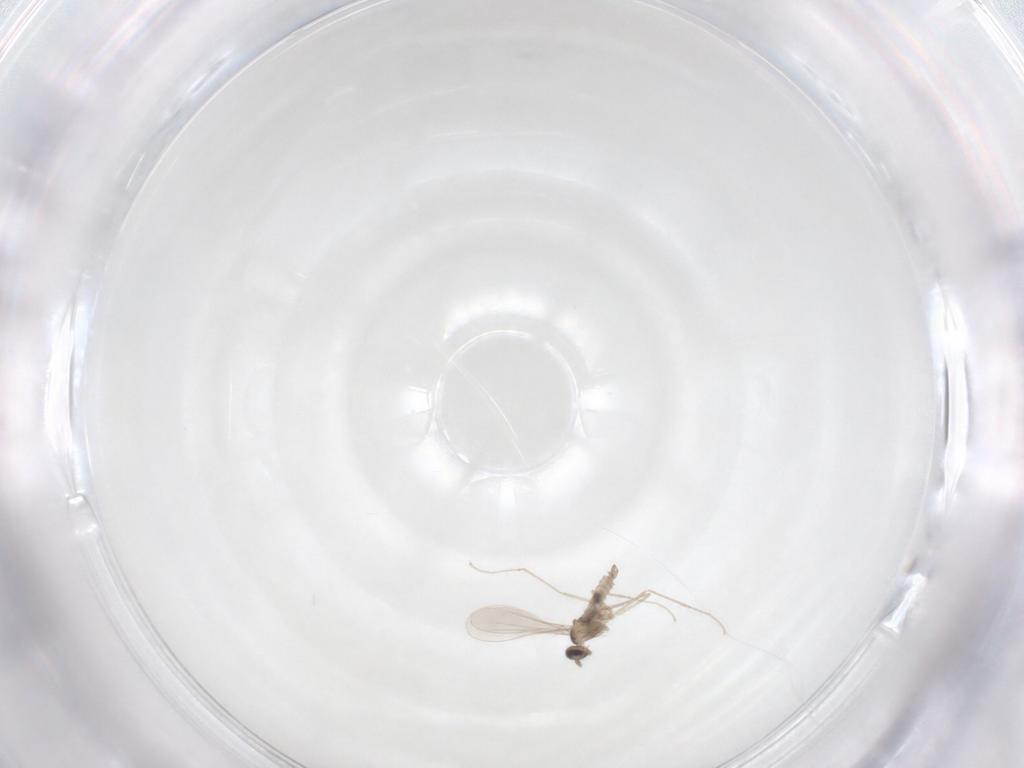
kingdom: Animalia
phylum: Arthropoda
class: Insecta
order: Diptera
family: Cecidomyiidae
